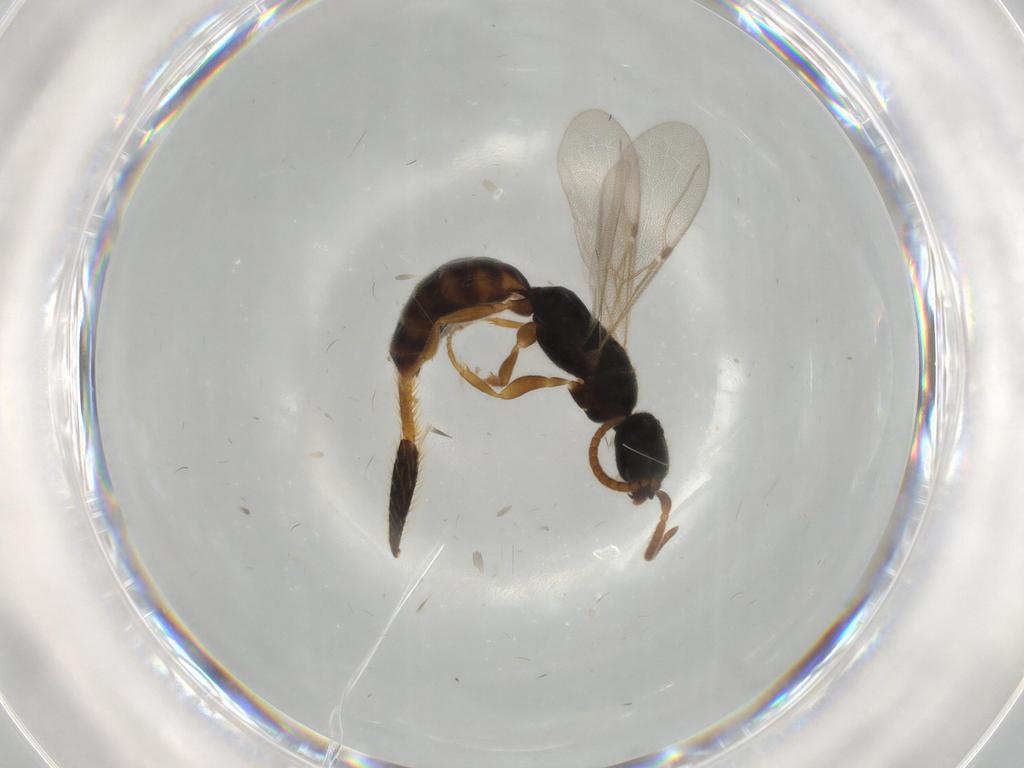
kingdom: Animalia
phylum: Arthropoda
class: Insecta
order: Hymenoptera
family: Bethylidae
